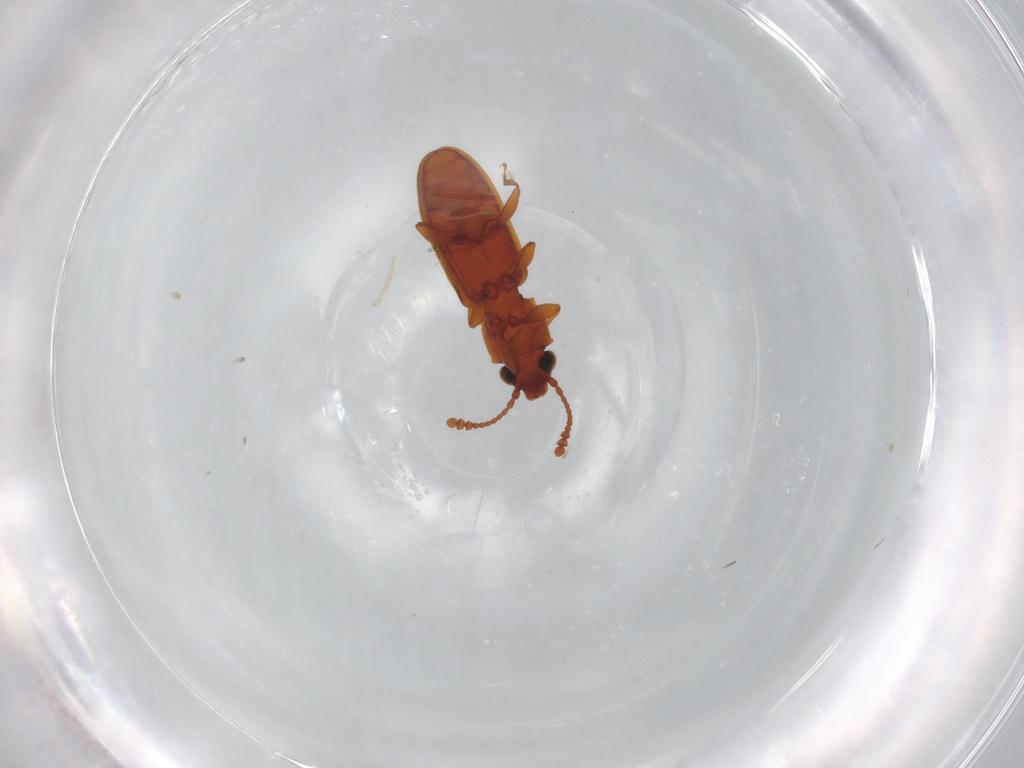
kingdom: Animalia
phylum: Arthropoda
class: Insecta
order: Coleoptera
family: Silvanidae
